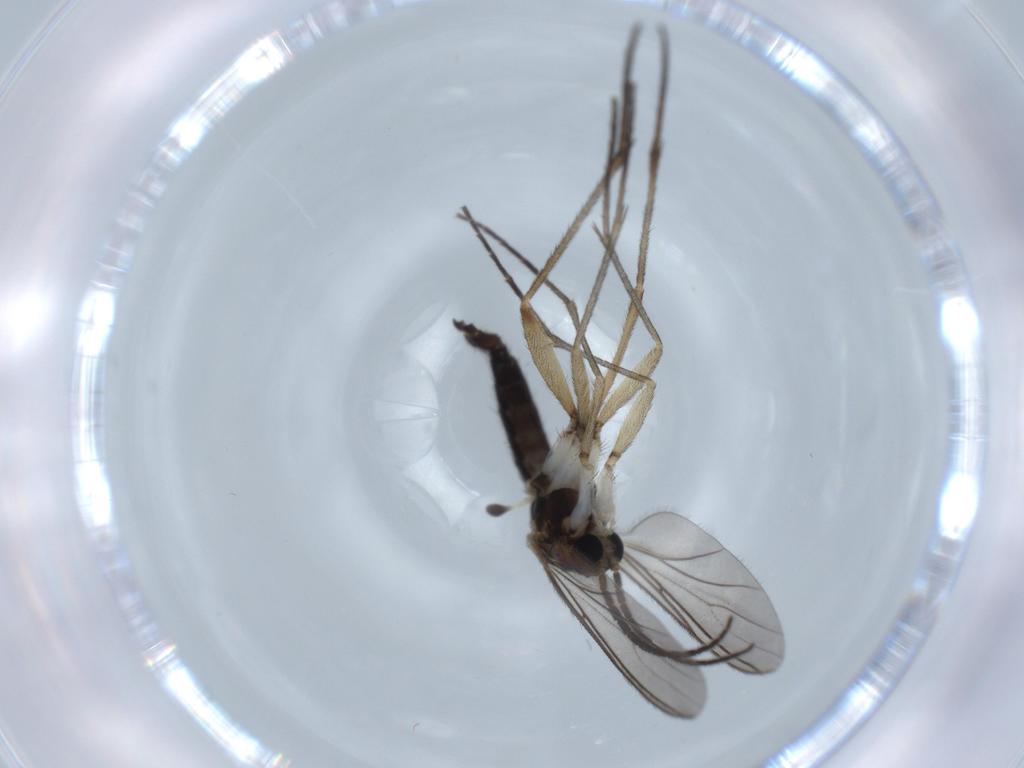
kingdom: Animalia
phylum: Arthropoda
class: Insecta
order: Diptera
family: Sciaridae
